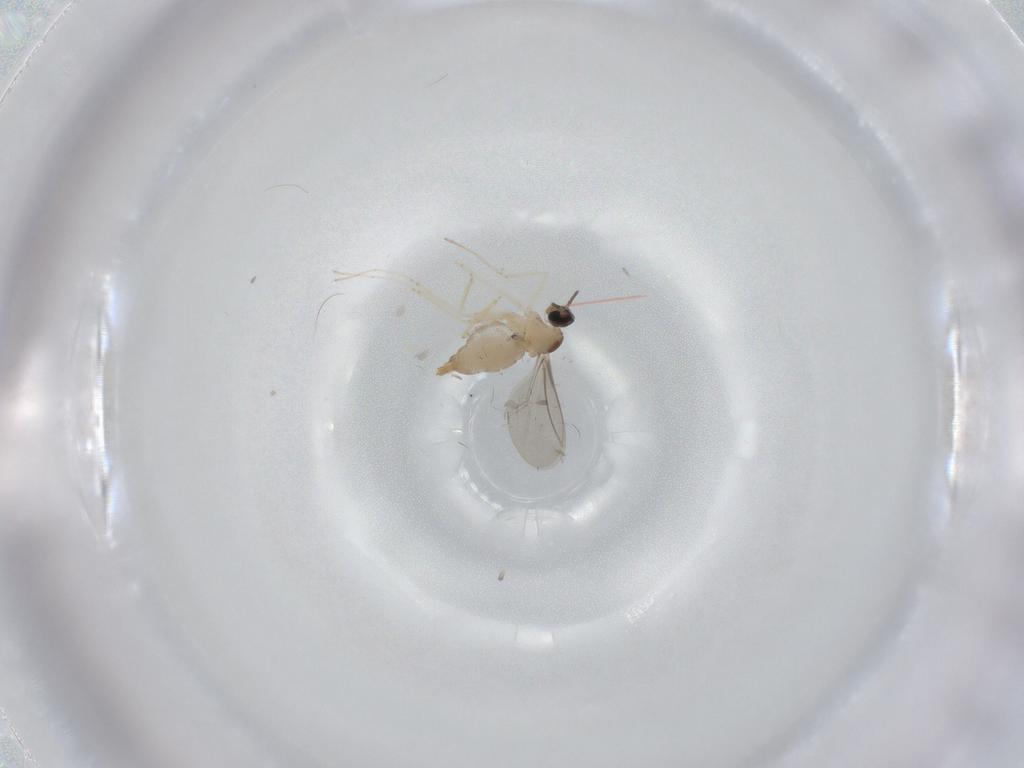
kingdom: Animalia
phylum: Arthropoda
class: Insecta
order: Diptera
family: Cecidomyiidae
